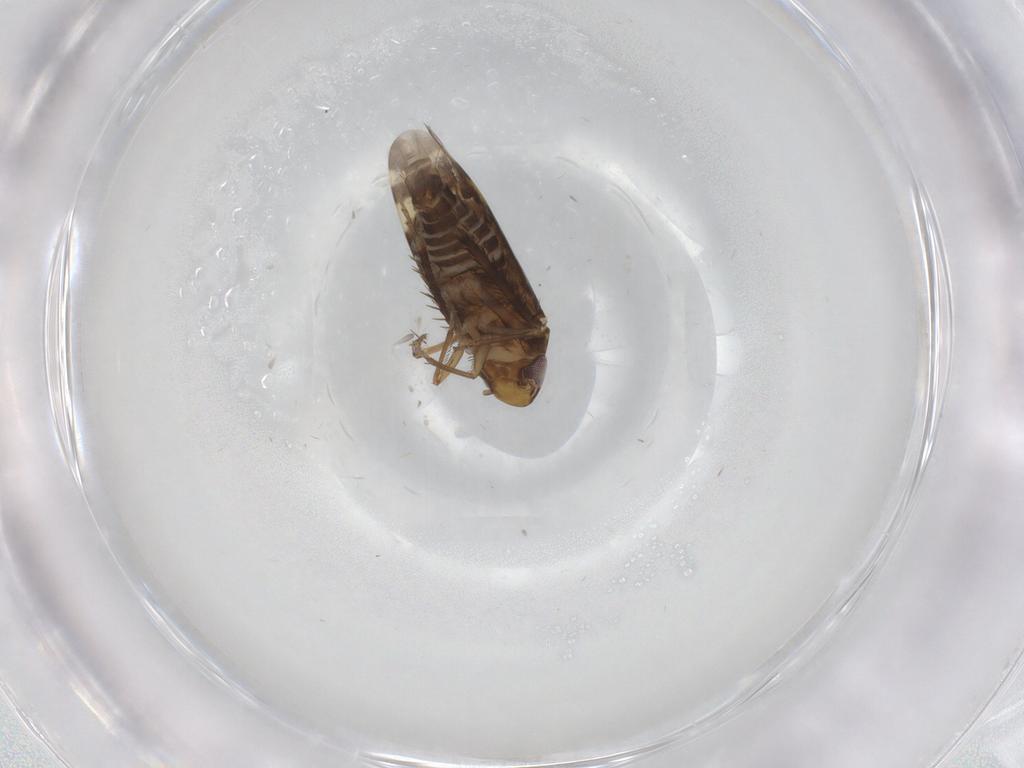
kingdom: Animalia
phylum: Arthropoda
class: Insecta
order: Hemiptera
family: Cicadellidae
